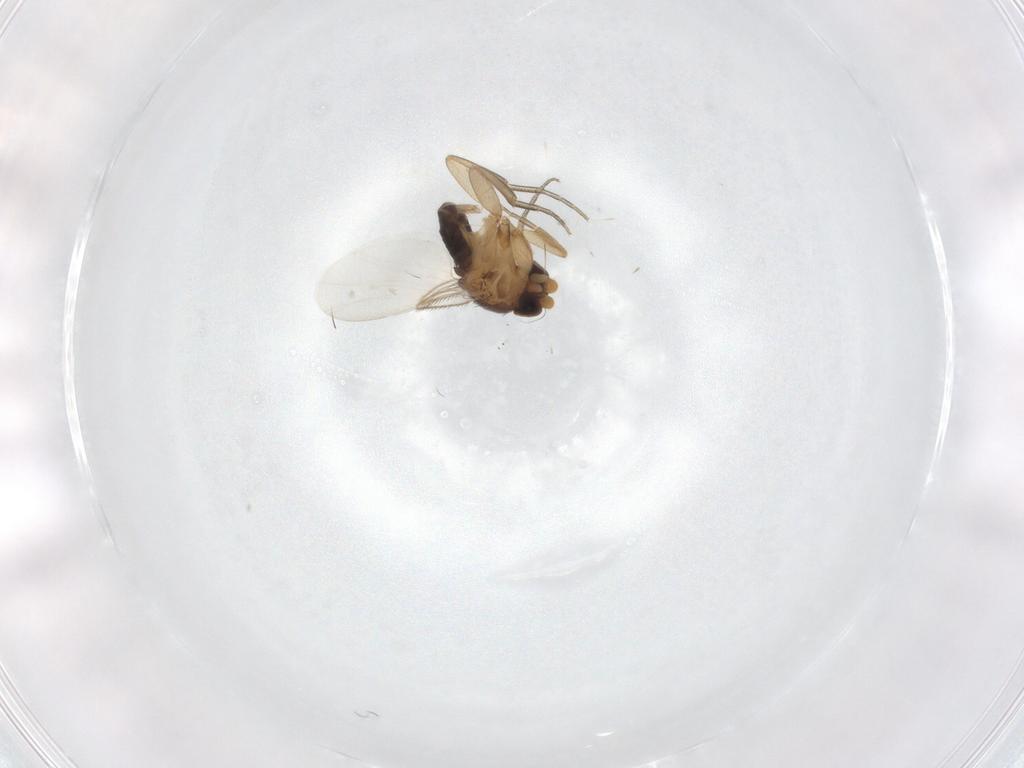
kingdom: Animalia
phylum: Arthropoda
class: Insecta
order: Diptera
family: Phoridae
